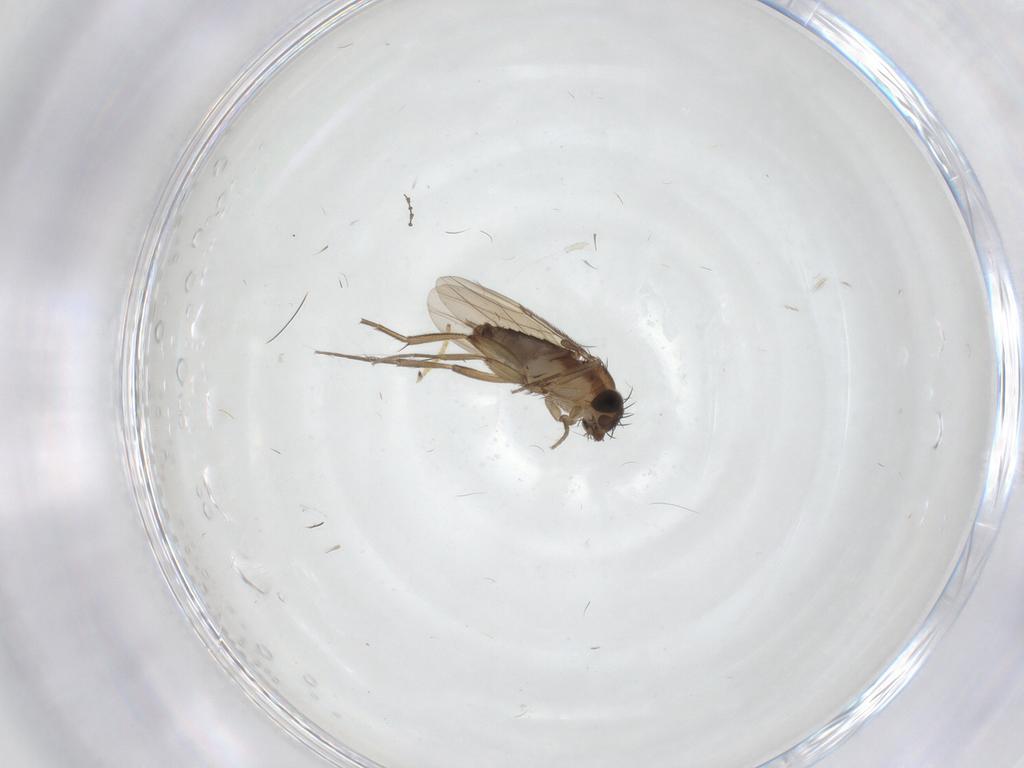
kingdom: Animalia
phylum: Arthropoda
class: Insecta
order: Diptera
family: Phoridae
